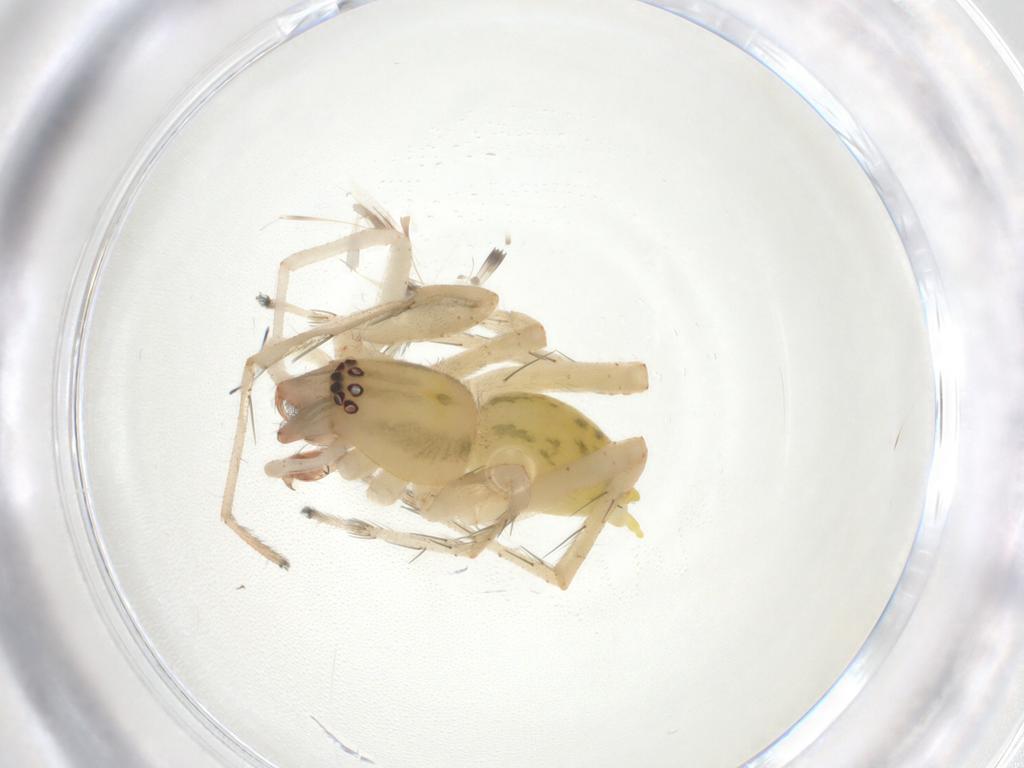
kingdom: Animalia
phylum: Arthropoda
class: Arachnida
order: Araneae
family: Anyphaenidae
